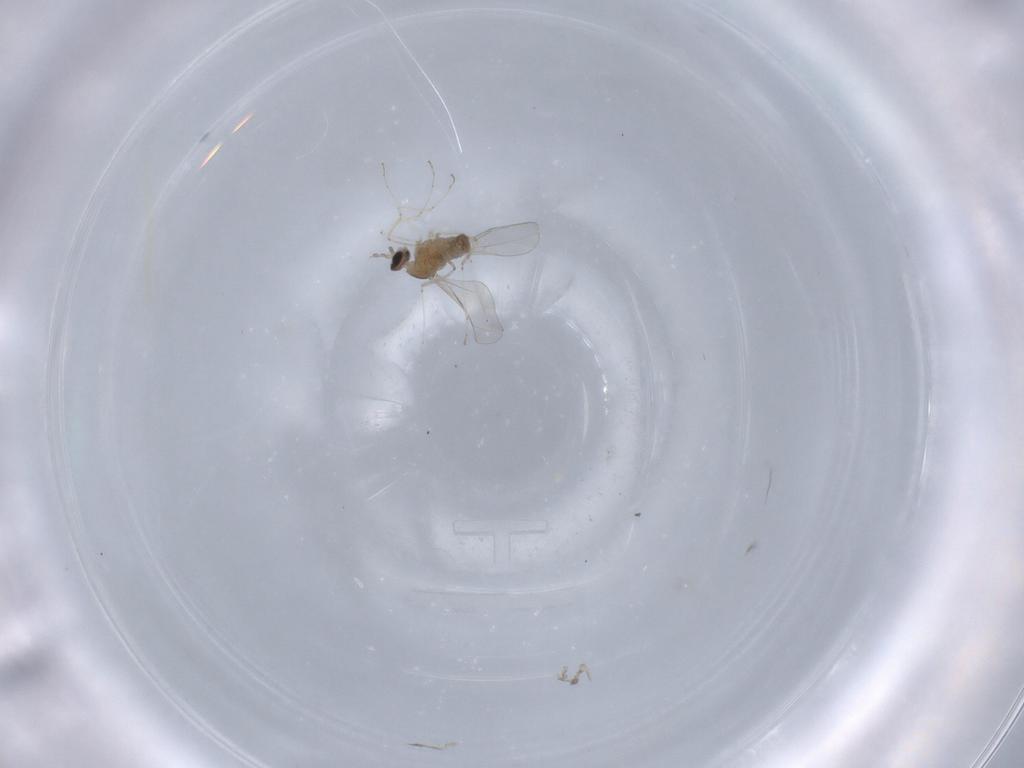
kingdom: Animalia
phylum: Arthropoda
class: Insecta
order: Diptera
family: Cecidomyiidae
